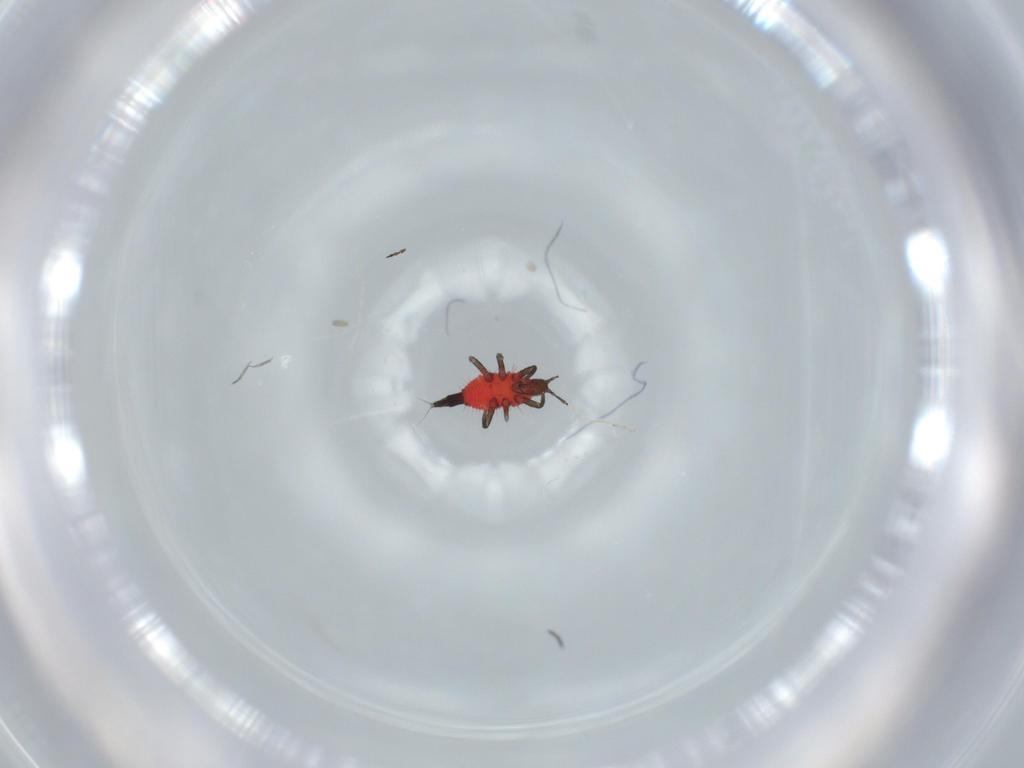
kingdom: Animalia
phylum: Arthropoda
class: Insecta
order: Thysanoptera
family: Phlaeothripidae
